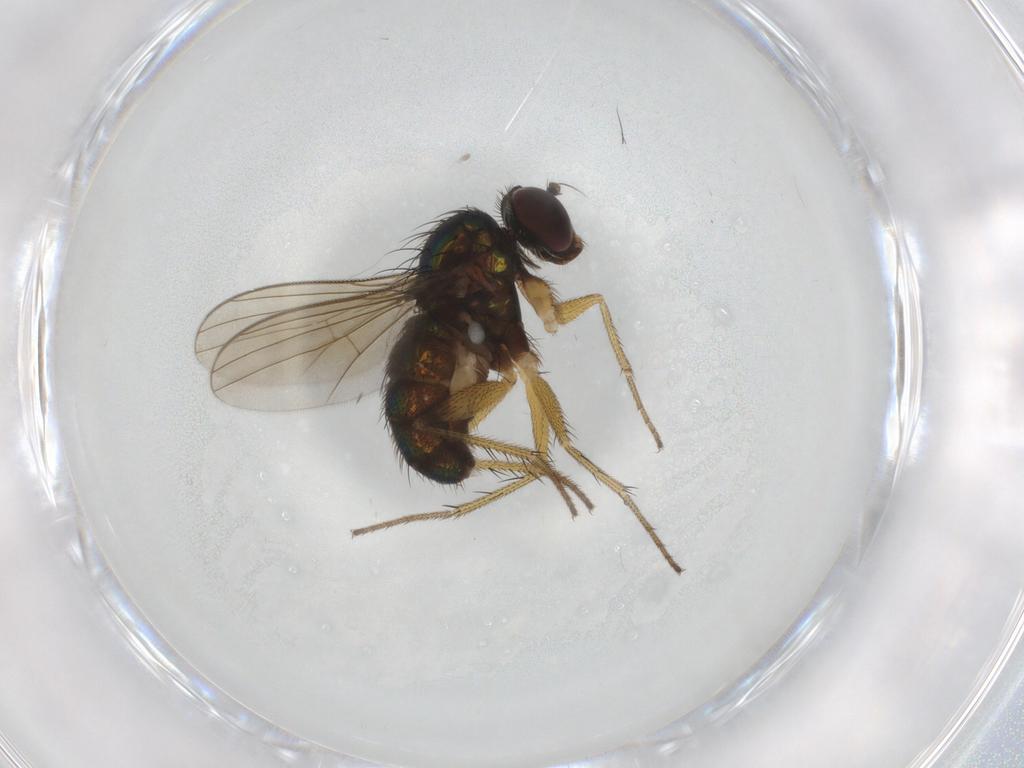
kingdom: Animalia
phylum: Arthropoda
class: Insecta
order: Diptera
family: Dolichopodidae
